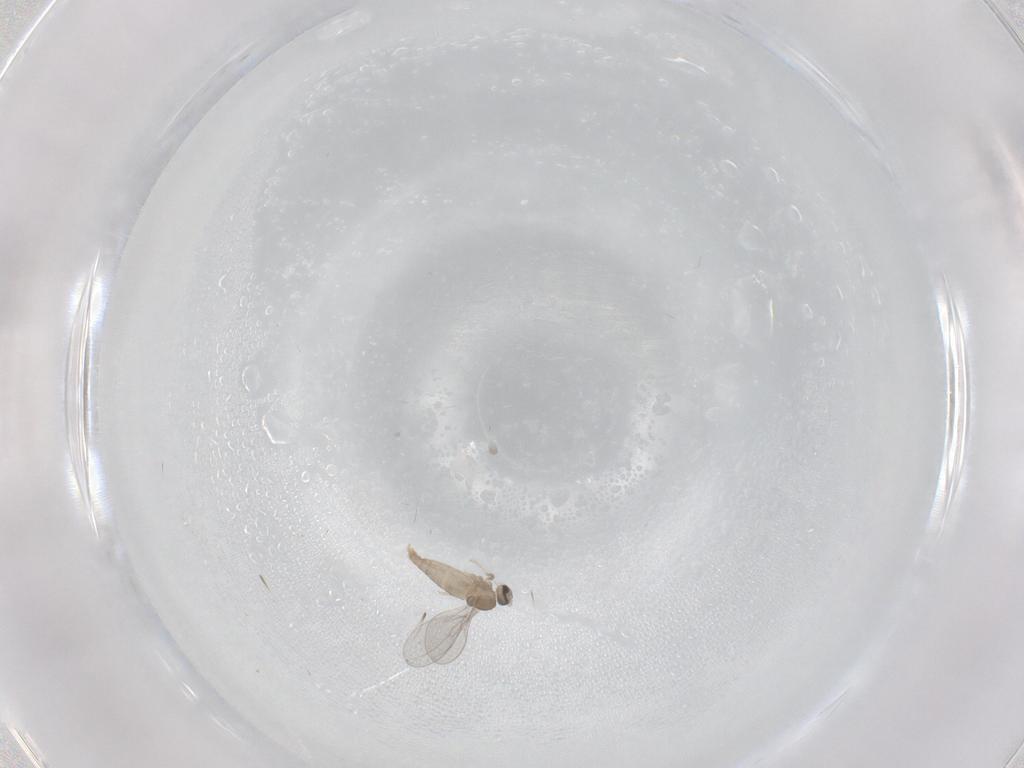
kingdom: Animalia
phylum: Arthropoda
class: Insecta
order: Diptera
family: Cecidomyiidae
